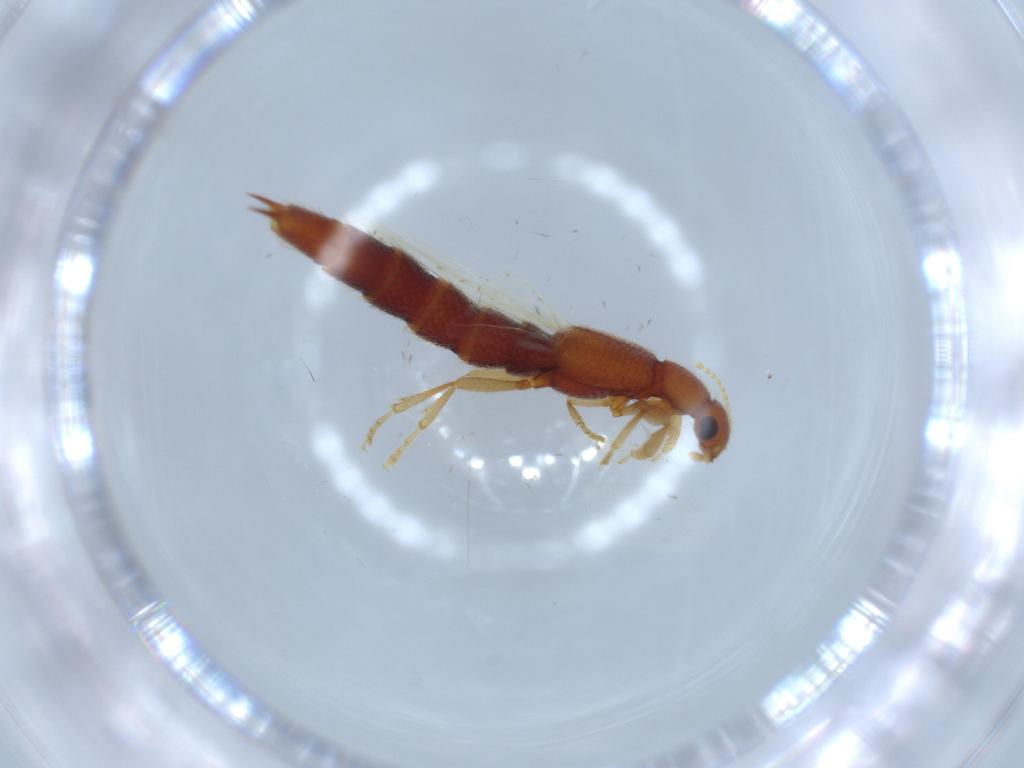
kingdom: Animalia
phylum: Arthropoda
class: Insecta
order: Coleoptera
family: Staphylinidae
